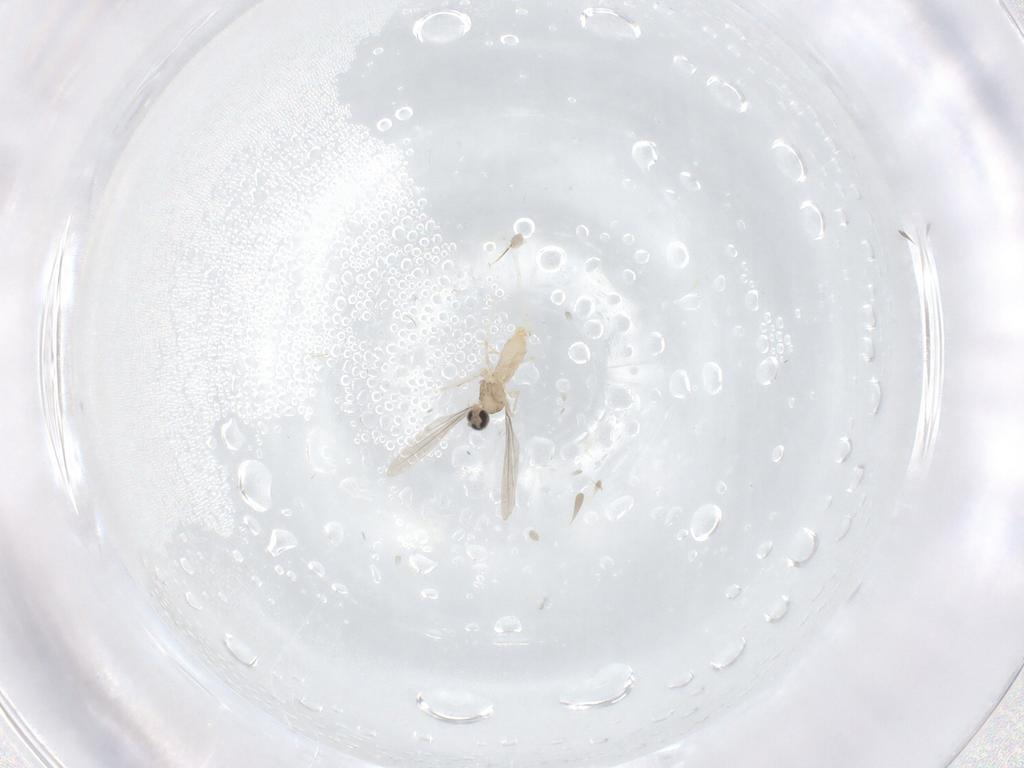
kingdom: Animalia
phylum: Arthropoda
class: Insecta
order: Diptera
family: Cecidomyiidae
